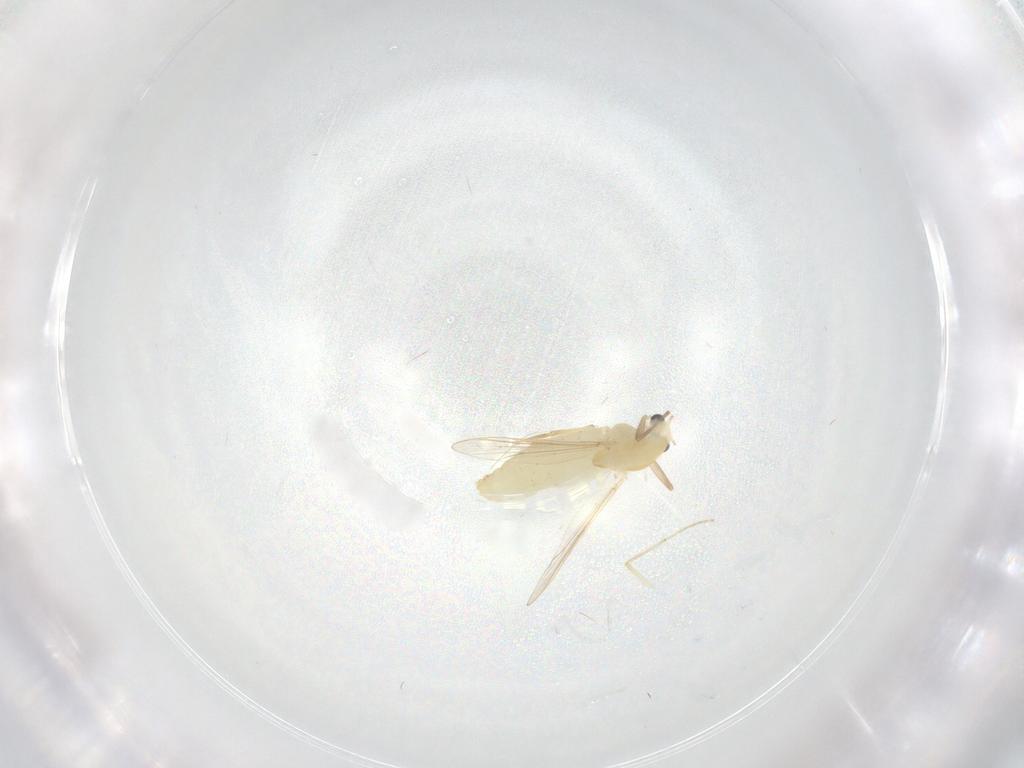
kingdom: Animalia
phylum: Arthropoda
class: Insecta
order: Diptera
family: Chironomidae
